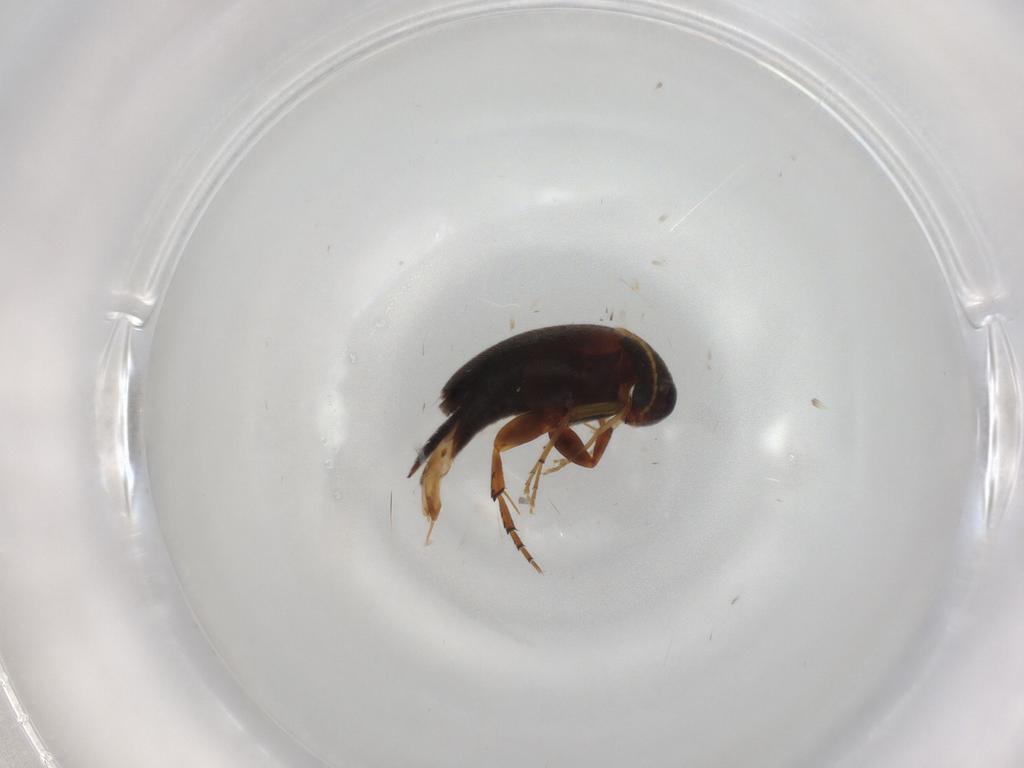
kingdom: Animalia
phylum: Arthropoda
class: Insecta
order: Coleoptera
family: Mordellidae
